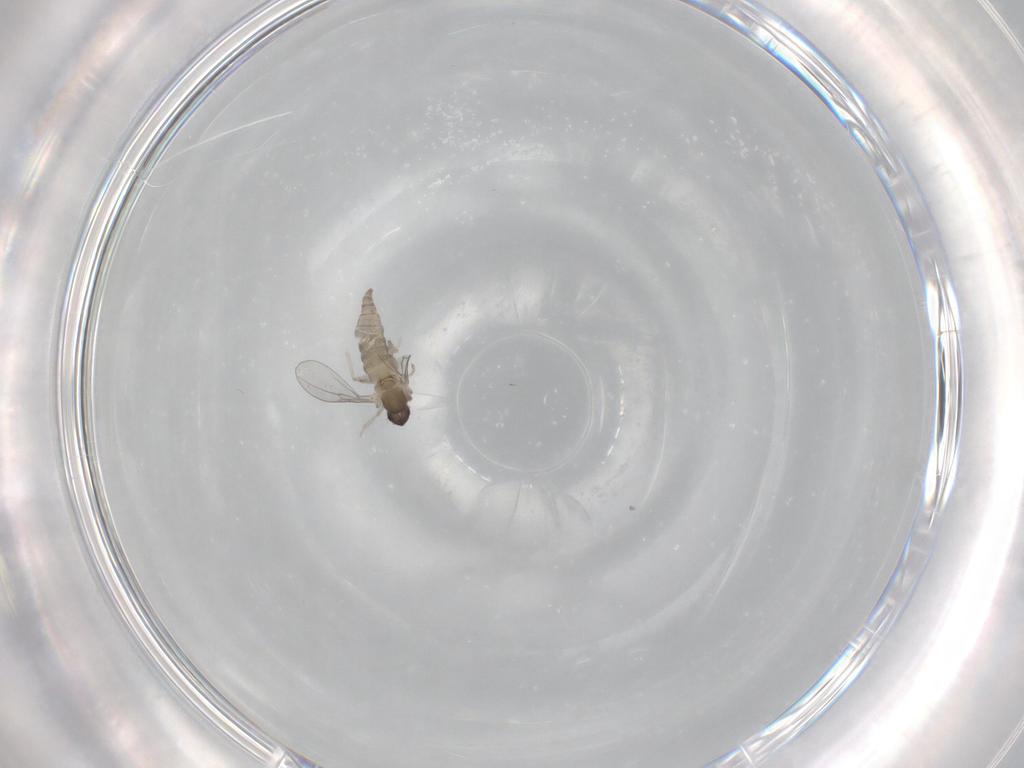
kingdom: Animalia
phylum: Arthropoda
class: Insecta
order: Diptera
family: Cecidomyiidae
